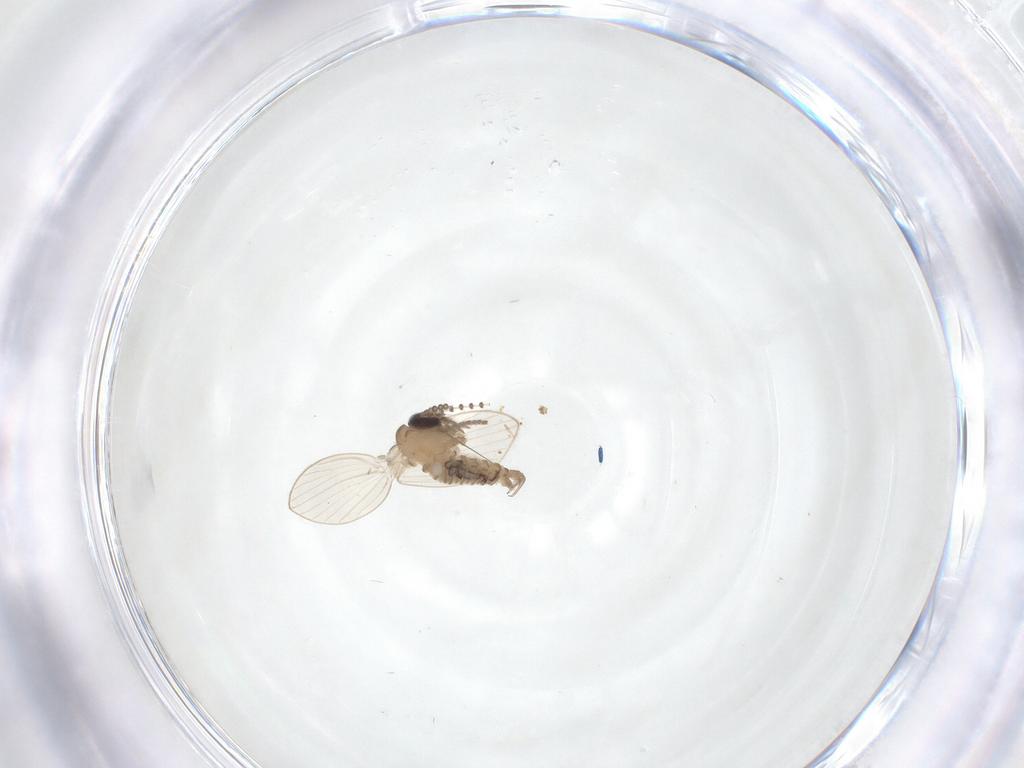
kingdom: Animalia
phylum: Arthropoda
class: Insecta
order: Diptera
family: Psychodidae
